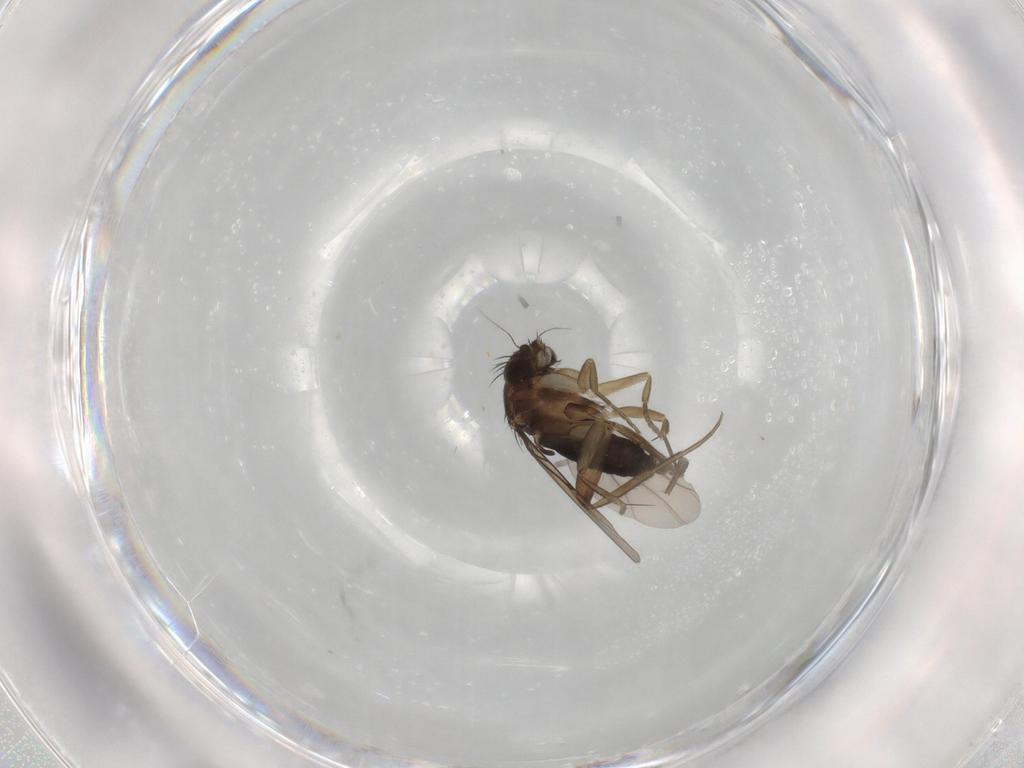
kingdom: Animalia
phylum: Arthropoda
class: Insecta
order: Diptera
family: Phoridae
